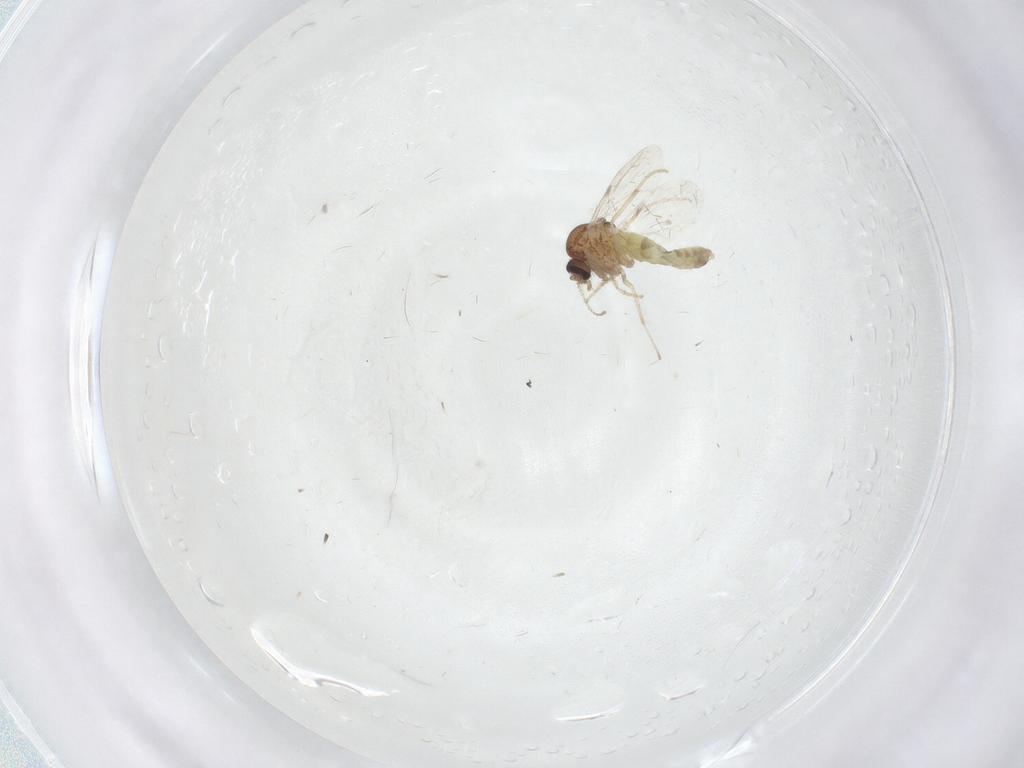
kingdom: Animalia
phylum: Arthropoda
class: Insecta
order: Diptera
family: Ceratopogonidae
